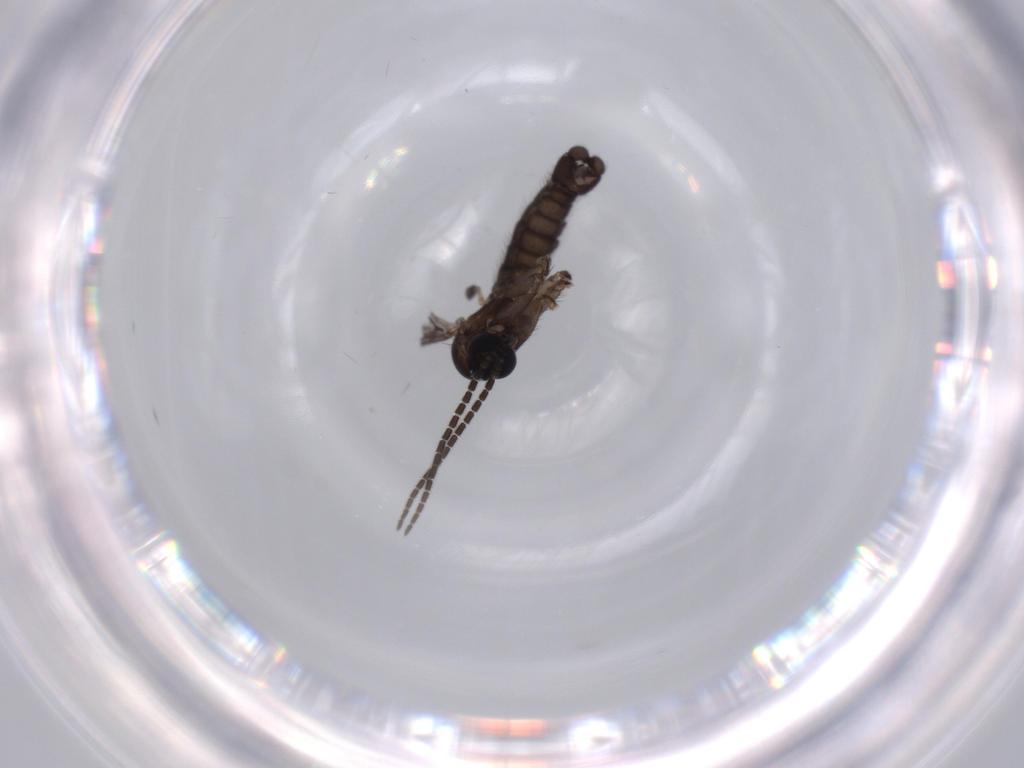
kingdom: Animalia
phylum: Arthropoda
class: Insecta
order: Diptera
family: Sciaridae
